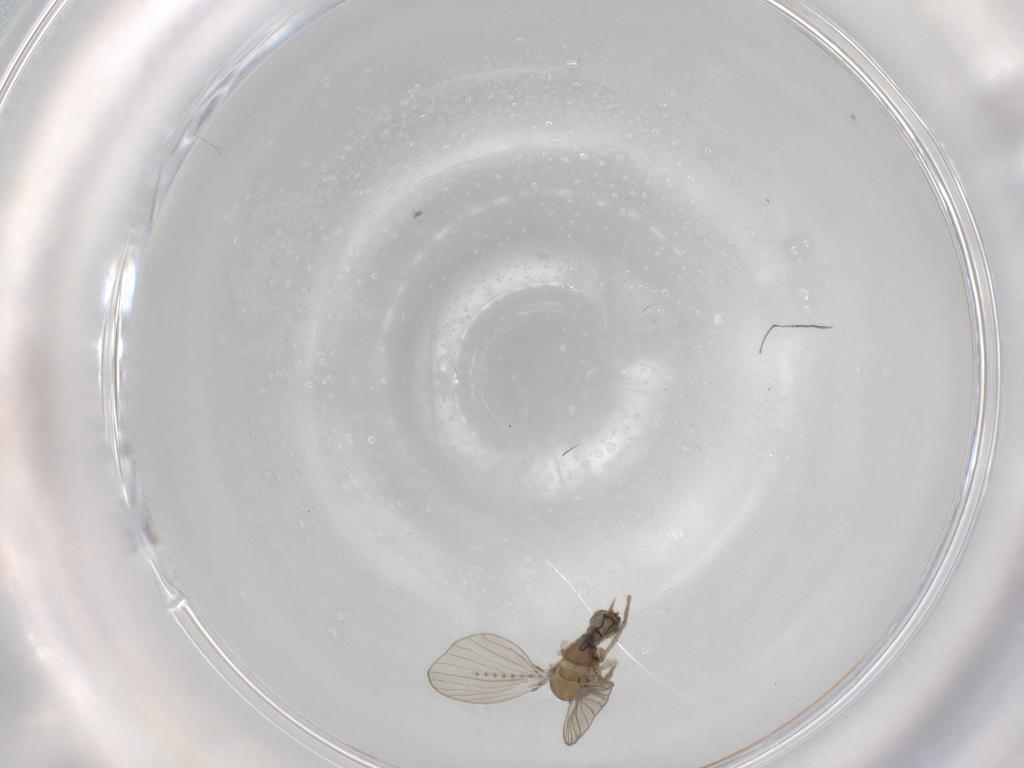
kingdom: Animalia
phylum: Arthropoda
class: Insecta
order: Diptera
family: Psychodidae
